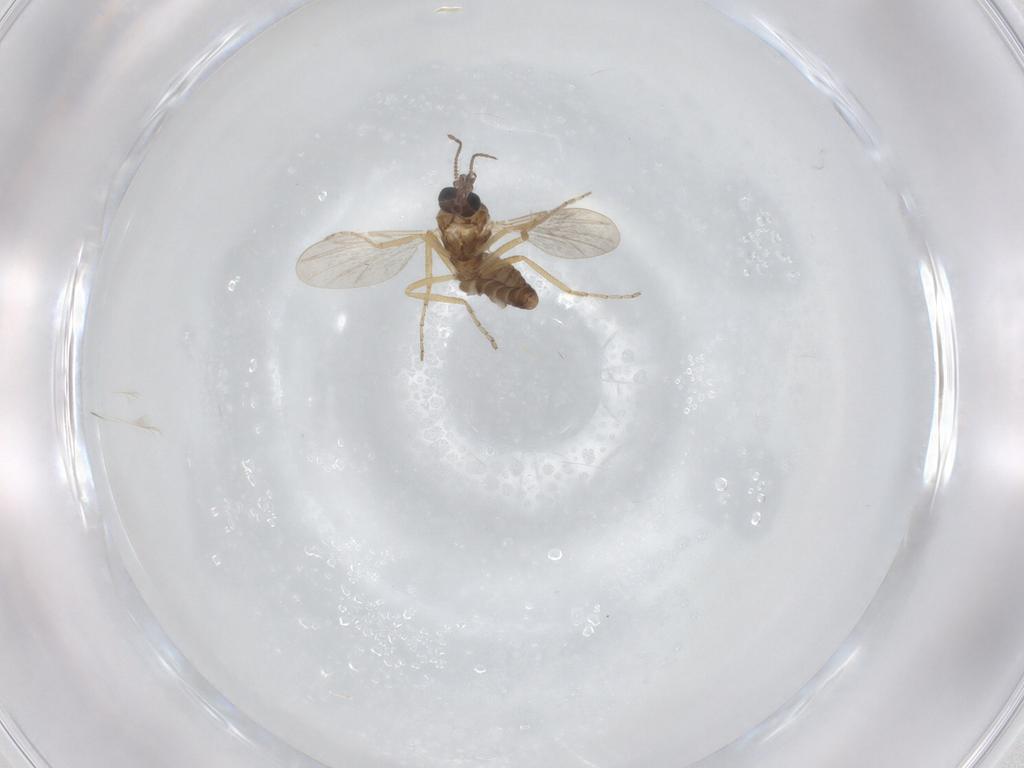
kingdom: Animalia
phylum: Arthropoda
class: Insecta
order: Diptera
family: Ceratopogonidae
